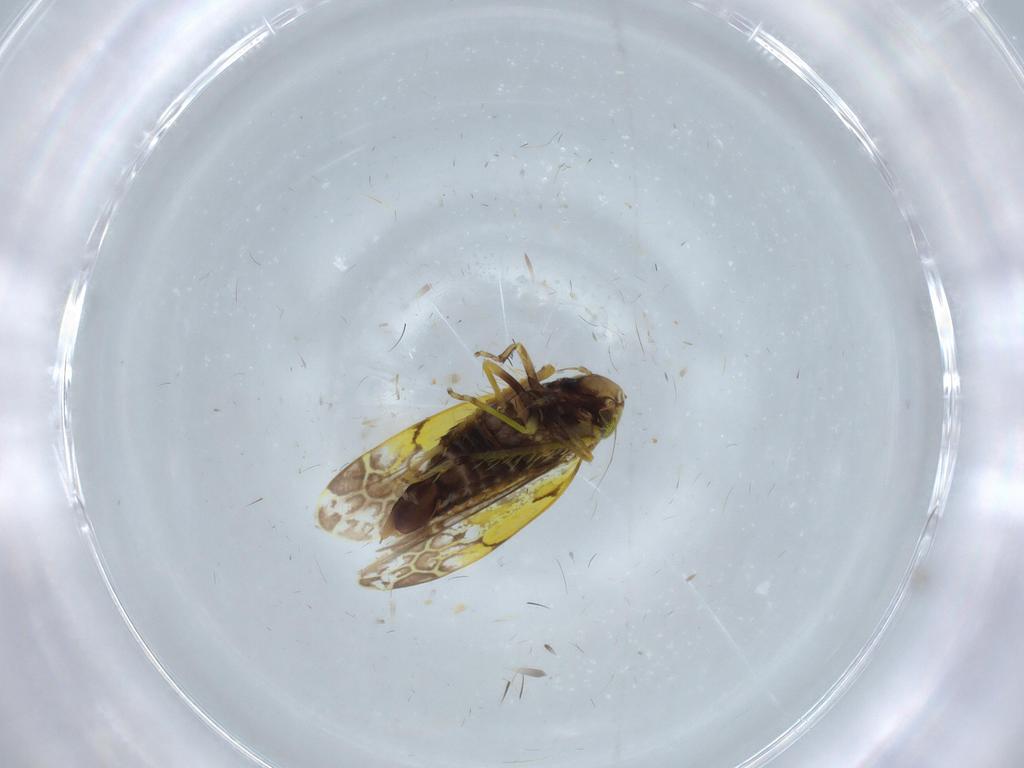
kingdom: Animalia
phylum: Arthropoda
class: Insecta
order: Hemiptera
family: Cicadellidae
